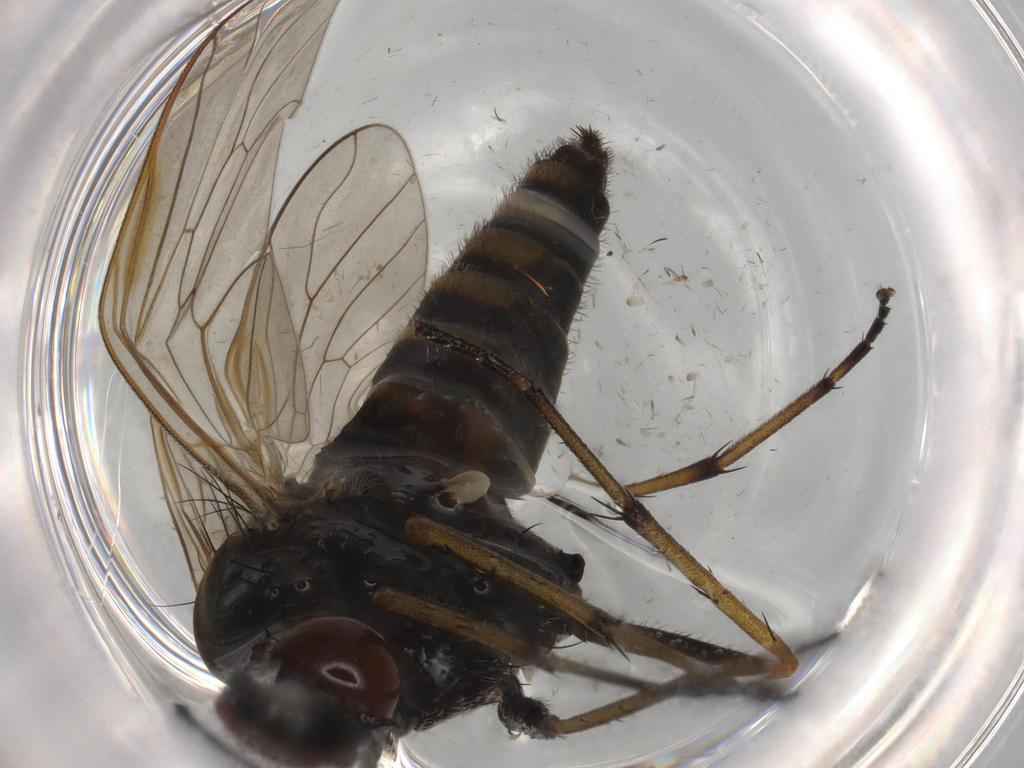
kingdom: Animalia
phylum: Arthropoda
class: Insecta
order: Diptera
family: Therevidae
